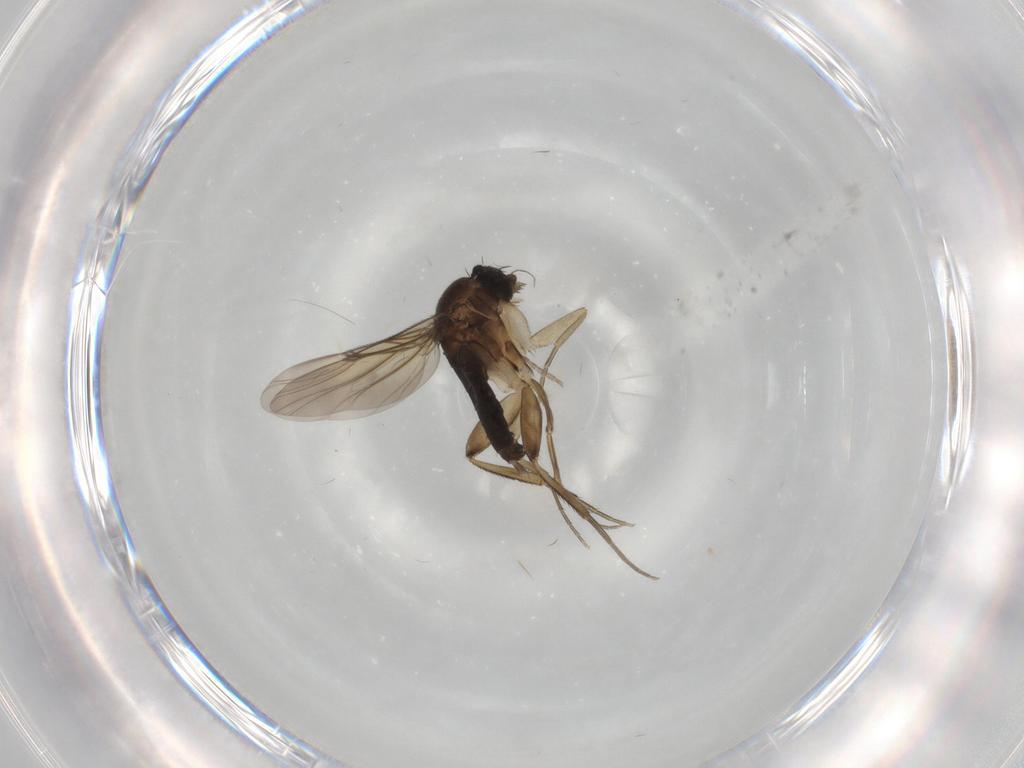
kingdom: Animalia
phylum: Arthropoda
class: Insecta
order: Diptera
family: Phoridae
